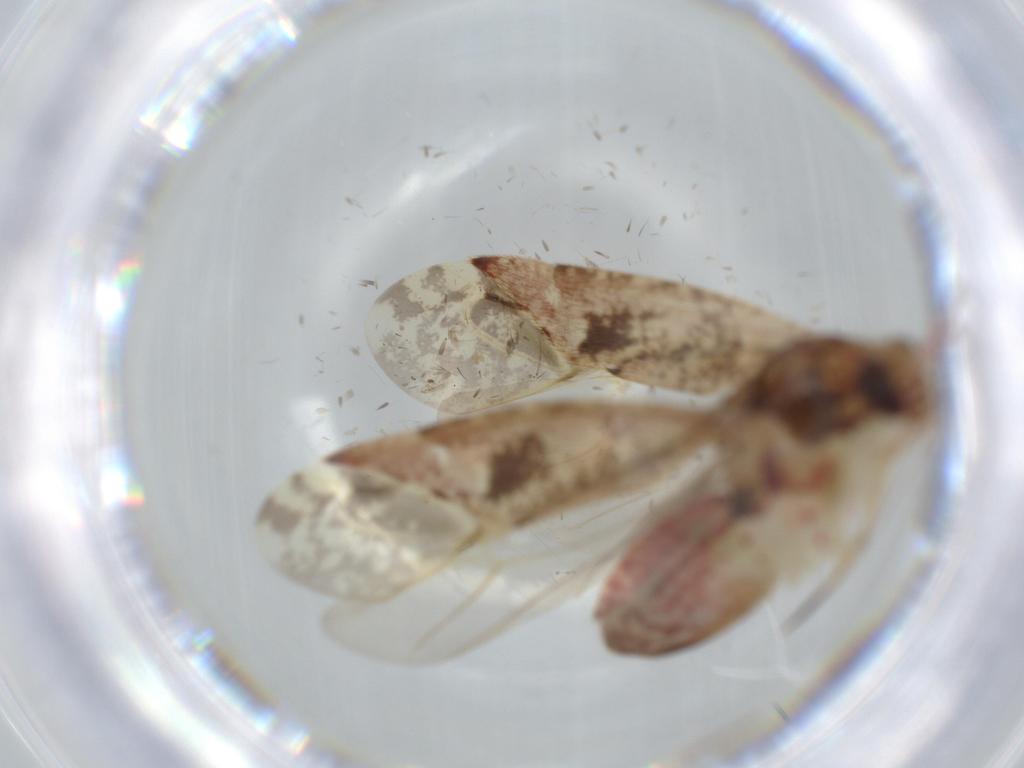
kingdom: Animalia
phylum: Arthropoda
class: Insecta
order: Hemiptera
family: Miridae
